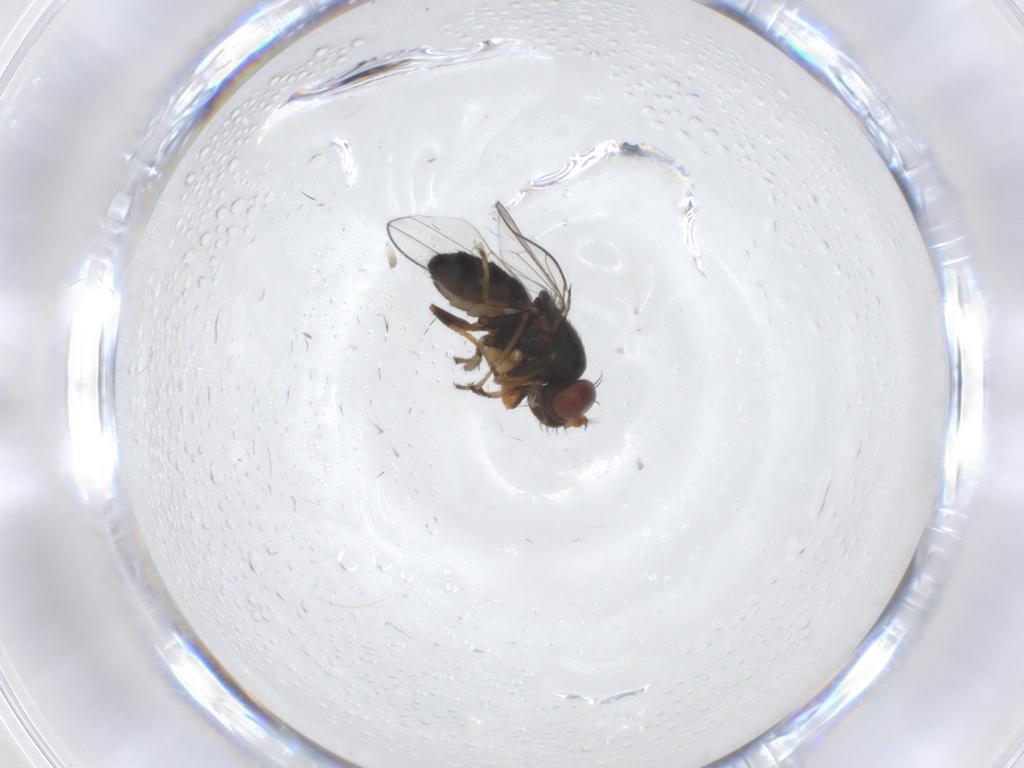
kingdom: Animalia
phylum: Arthropoda
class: Insecta
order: Diptera
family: Ephydridae
